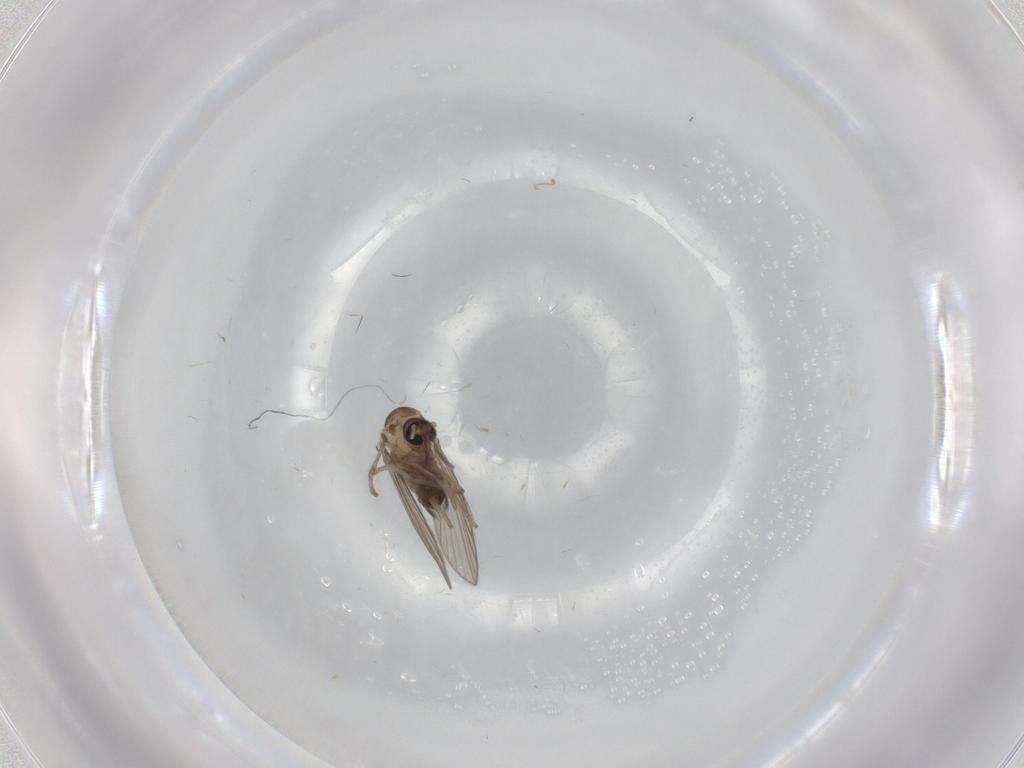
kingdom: Animalia
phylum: Arthropoda
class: Insecta
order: Diptera
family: Psychodidae
